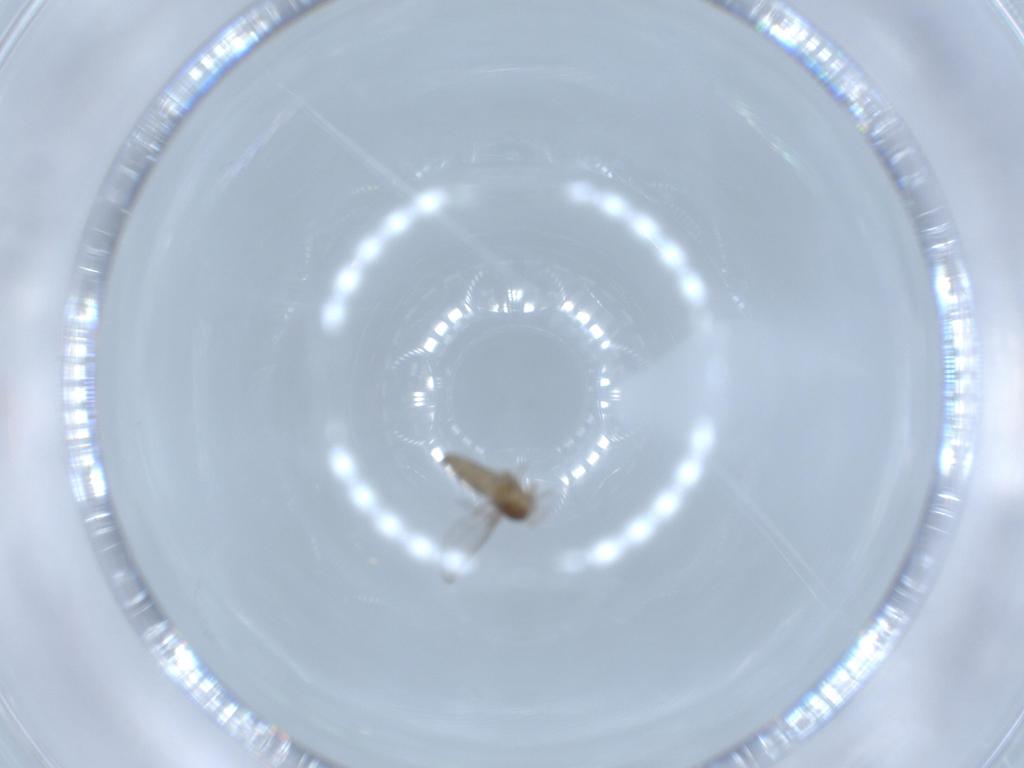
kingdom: Animalia
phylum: Arthropoda
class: Insecta
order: Diptera
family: Cecidomyiidae
